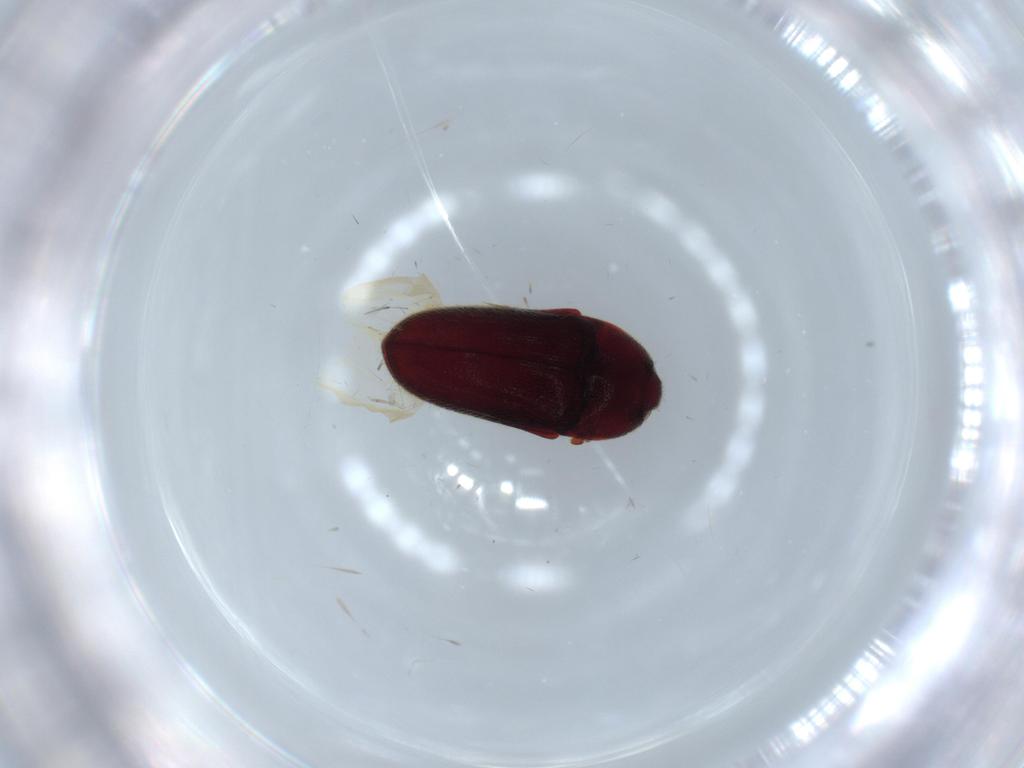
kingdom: Animalia
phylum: Arthropoda
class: Insecta
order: Coleoptera
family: Throscidae
